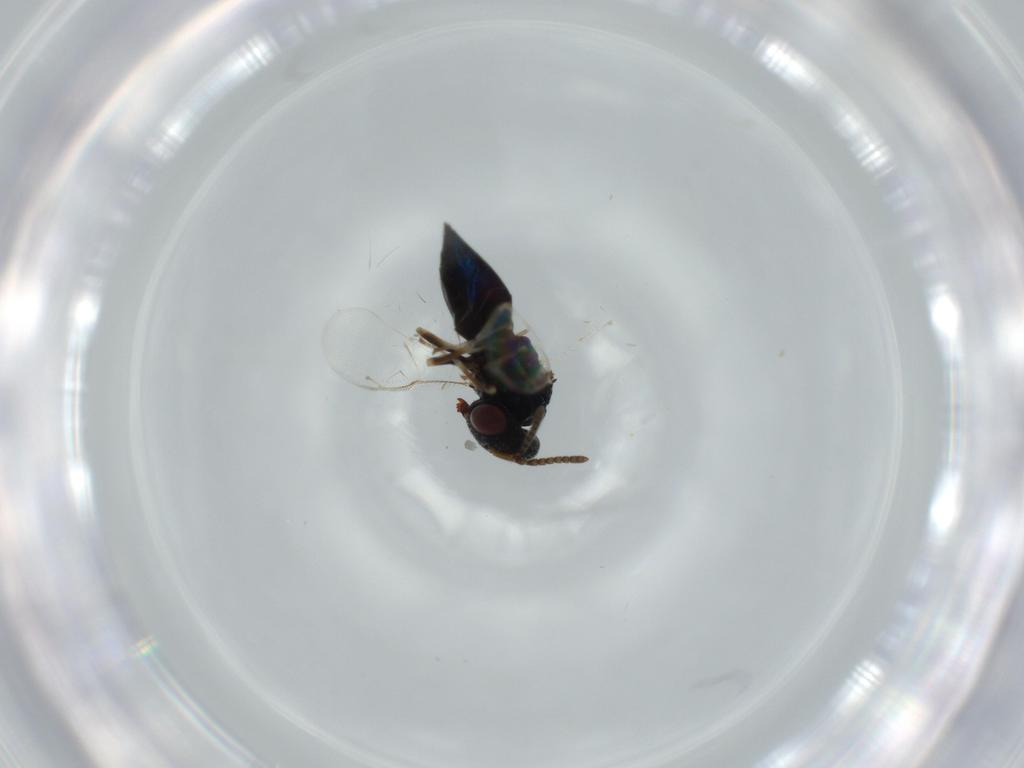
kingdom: Animalia
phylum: Arthropoda
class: Insecta
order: Hymenoptera
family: Pteromalidae
